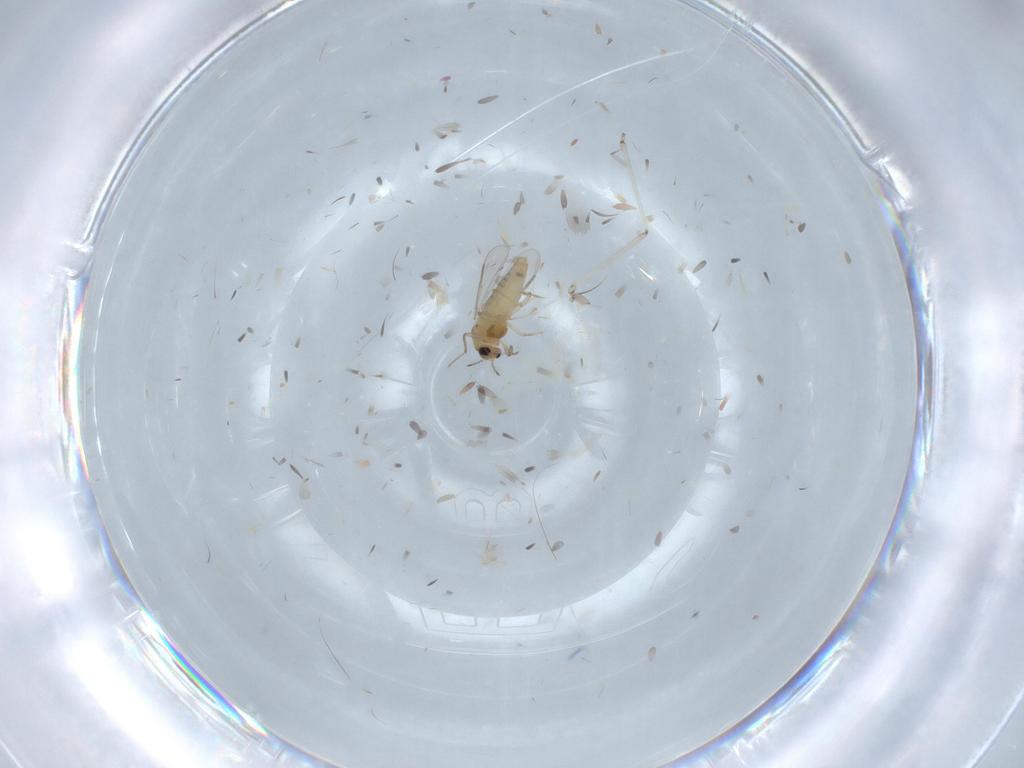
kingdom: Animalia
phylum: Arthropoda
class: Insecta
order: Diptera
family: Chironomidae
